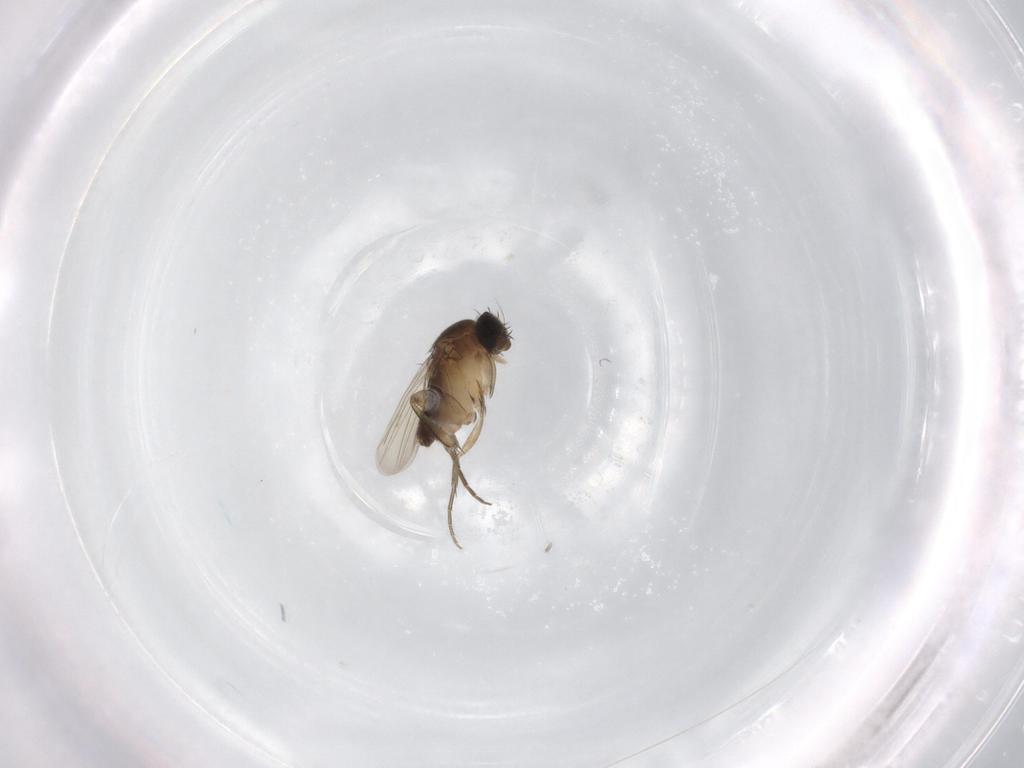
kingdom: Animalia
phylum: Arthropoda
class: Insecta
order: Diptera
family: Phoridae
